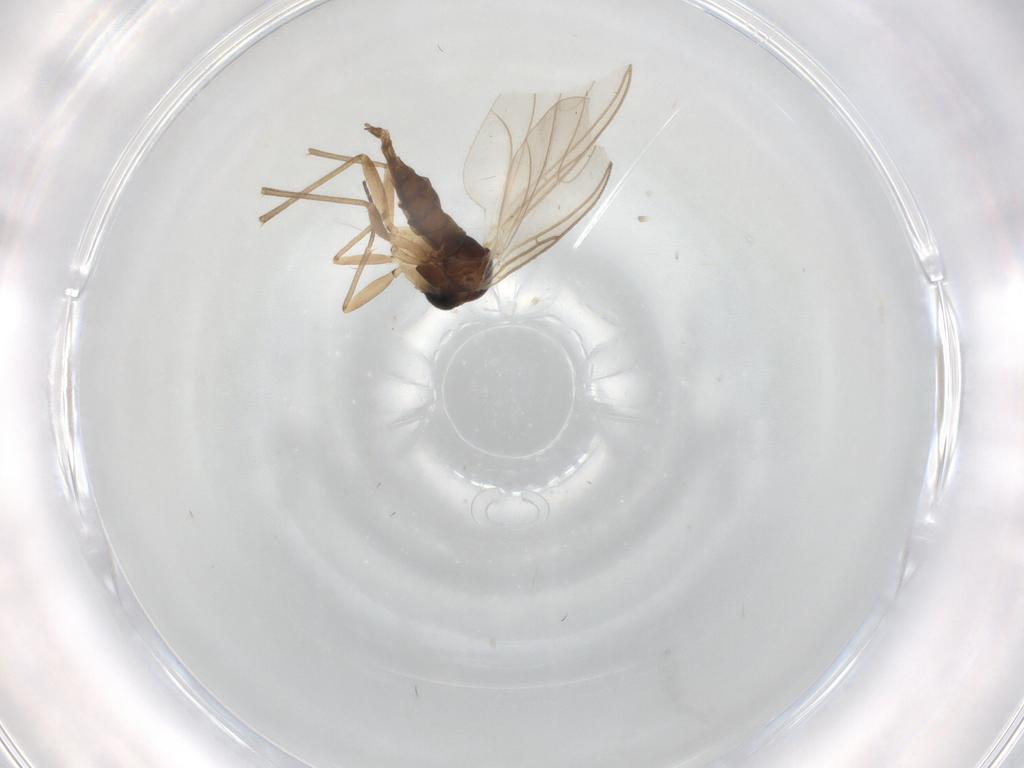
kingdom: Animalia
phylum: Arthropoda
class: Insecta
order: Diptera
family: Sciaridae
